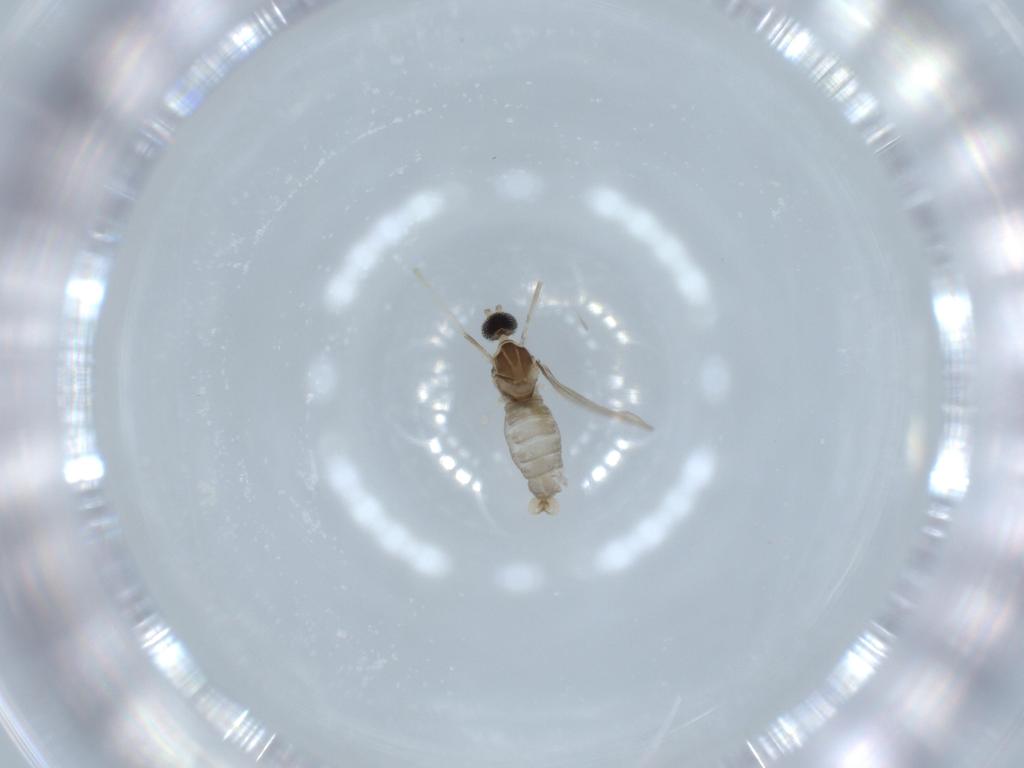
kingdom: Animalia
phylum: Arthropoda
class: Insecta
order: Diptera
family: Cecidomyiidae
